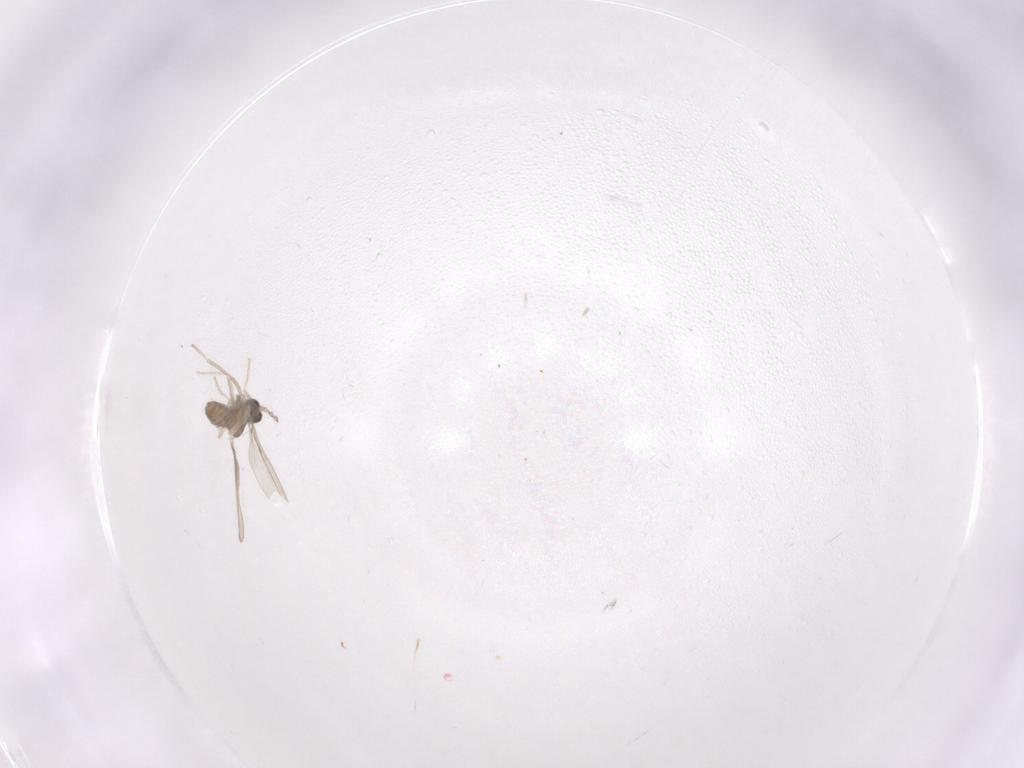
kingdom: Animalia
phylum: Arthropoda
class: Insecta
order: Diptera
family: Cecidomyiidae
